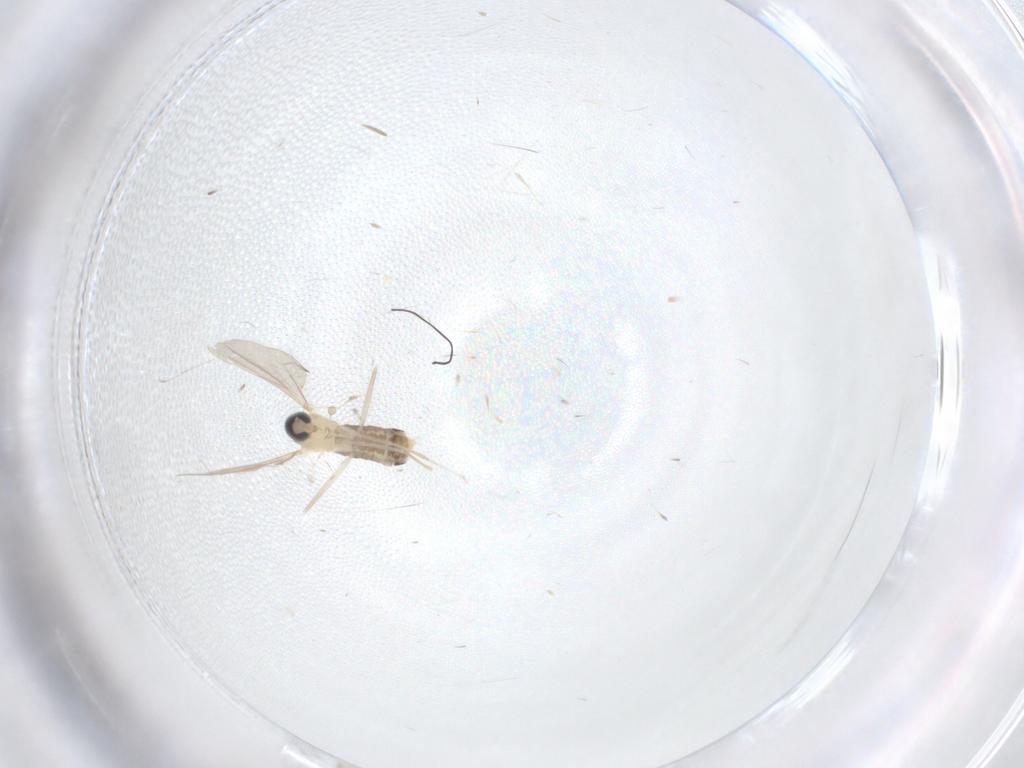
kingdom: Animalia
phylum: Arthropoda
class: Insecta
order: Diptera
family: Cecidomyiidae
